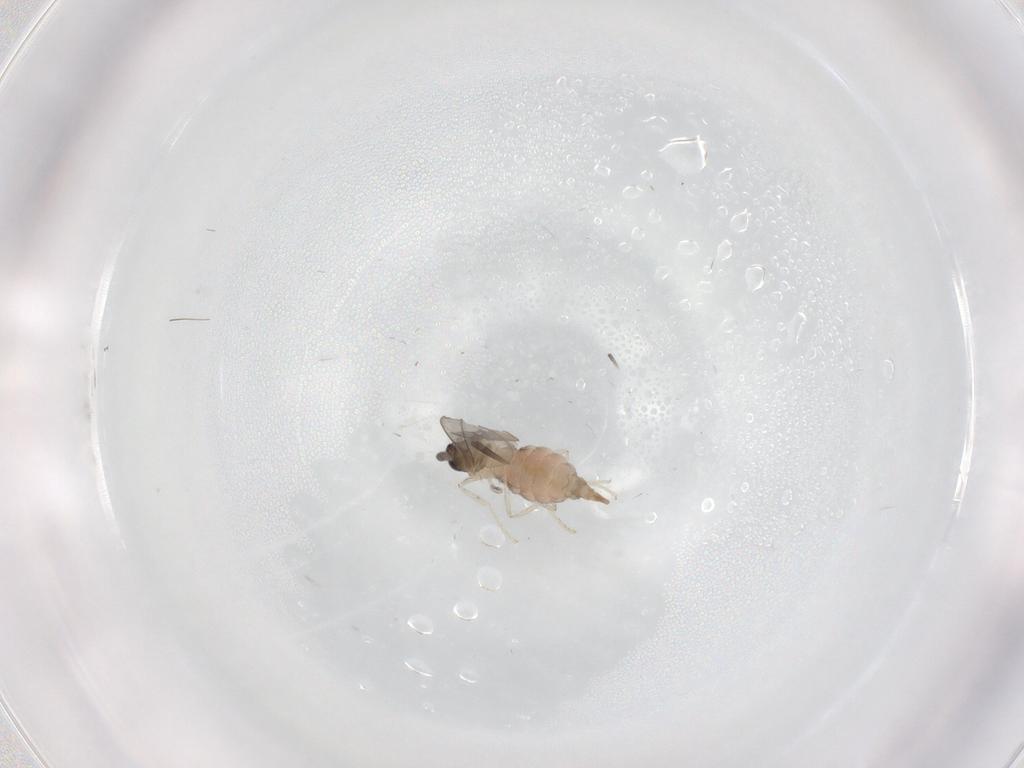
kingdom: Animalia
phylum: Arthropoda
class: Insecta
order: Diptera
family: Cecidomyiidae
